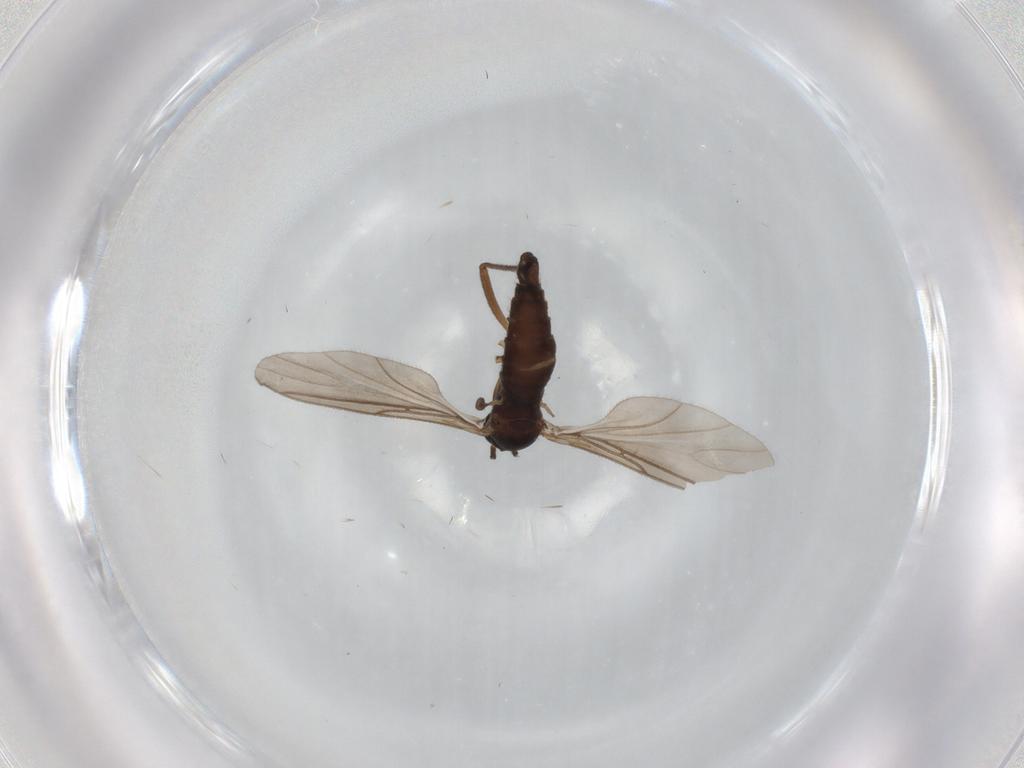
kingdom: Animalia
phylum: Arthropoda
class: Insecta
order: Diptera
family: Sciaridae
